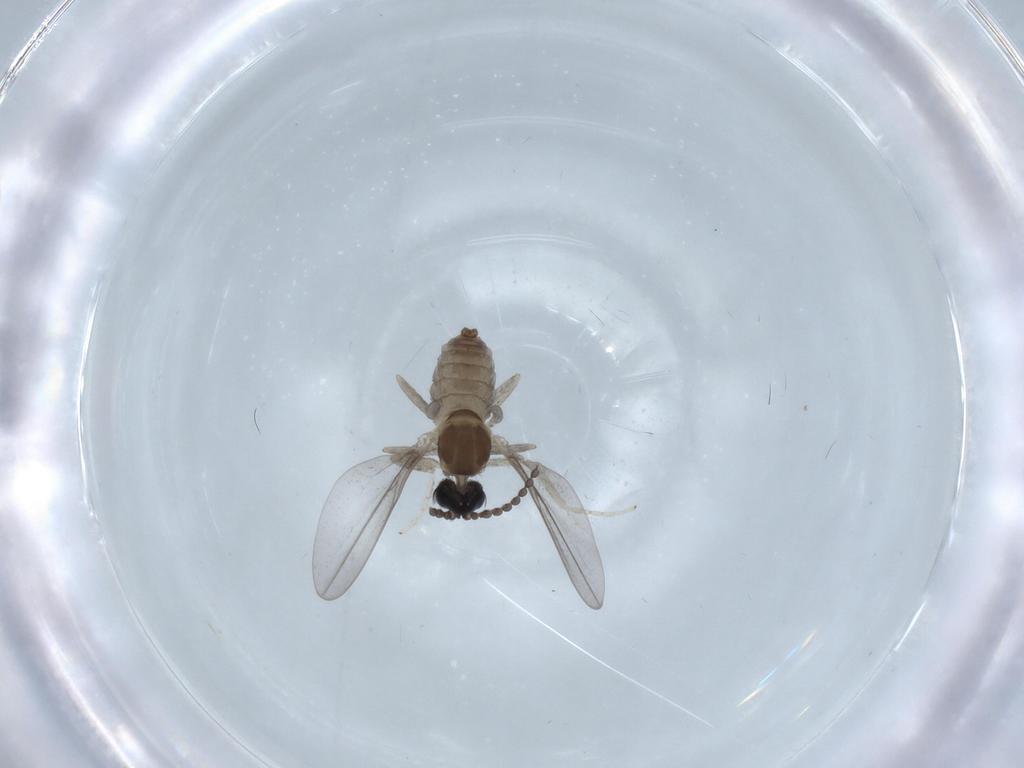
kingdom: Animalia
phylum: Arthropoda
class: Insecta
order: Diptera
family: Cecidomyiidae
